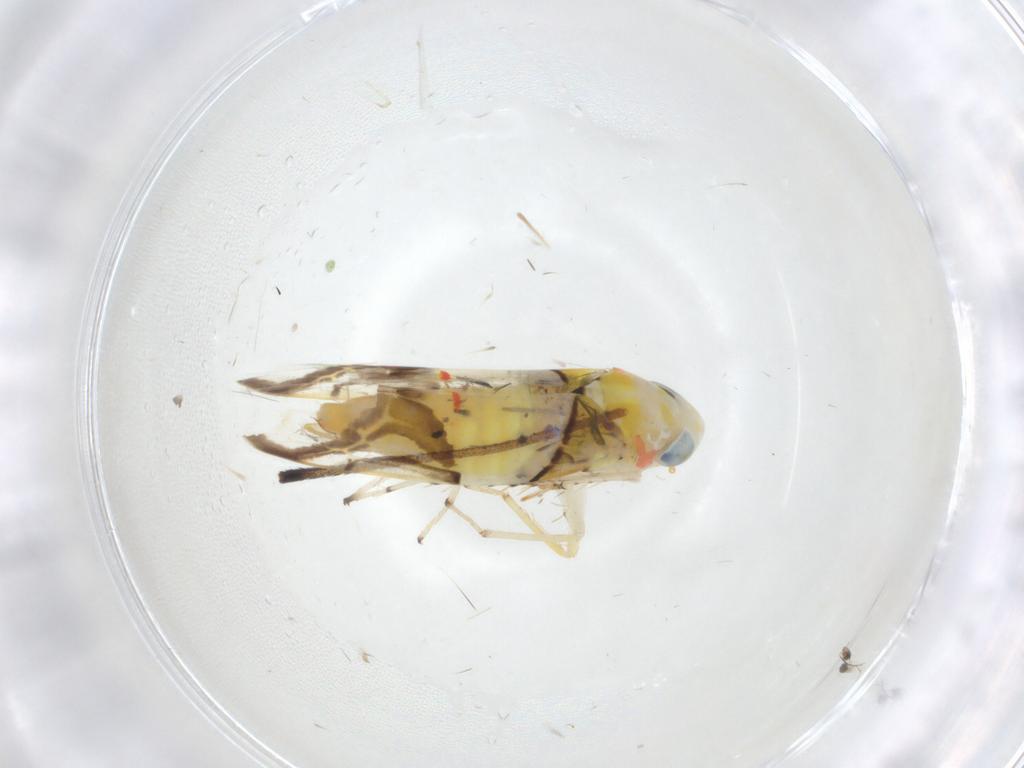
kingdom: Animalia
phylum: Arthropoda
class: Insecta
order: Hemiptera
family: Cicadellidae
